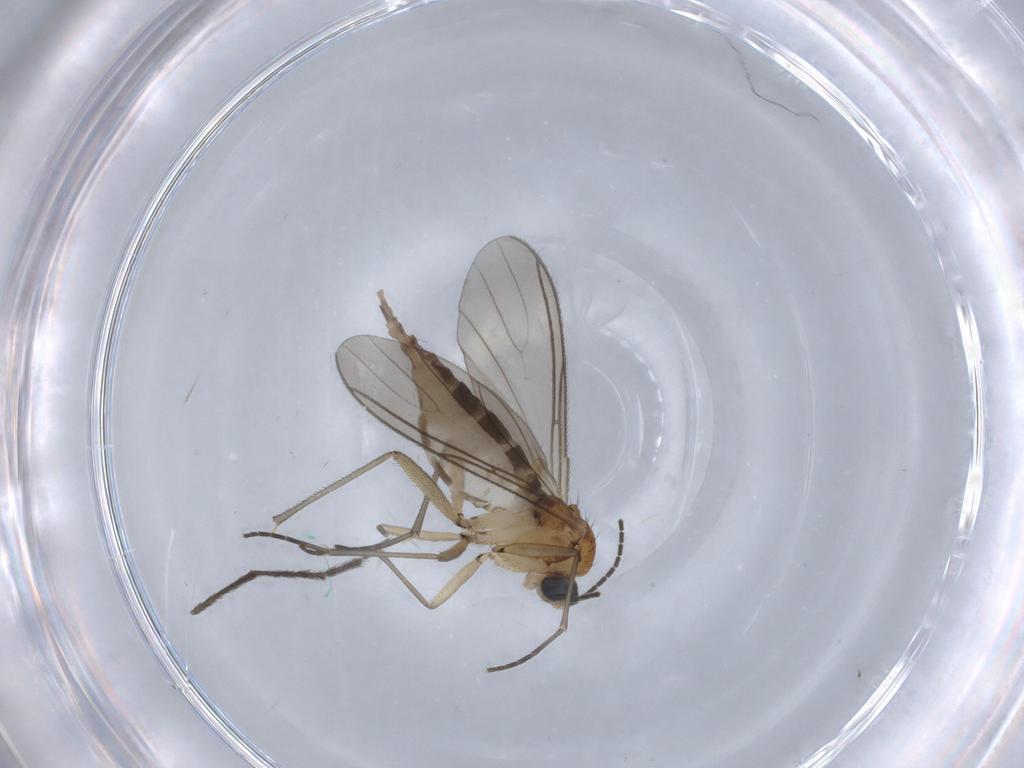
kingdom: Animalia
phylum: Arthropoda
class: Insecta
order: Diptera
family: Sciaridae
